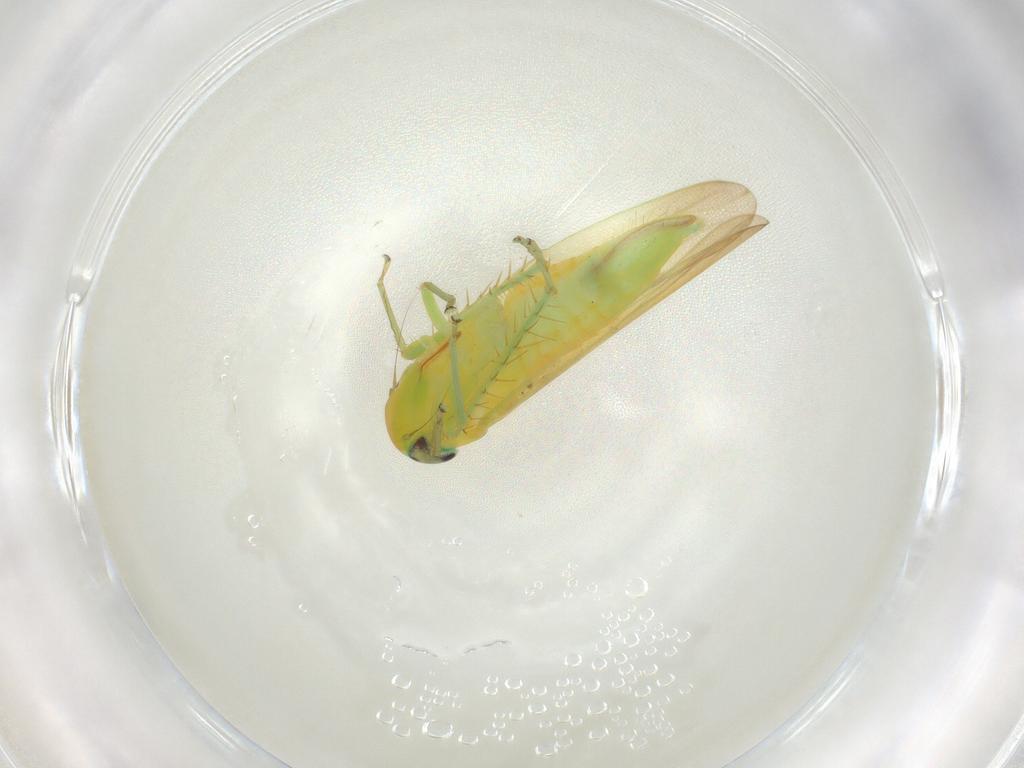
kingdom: Animalia
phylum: Arthropoda
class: Insecta
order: Hemiptera
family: Cicadellidae
